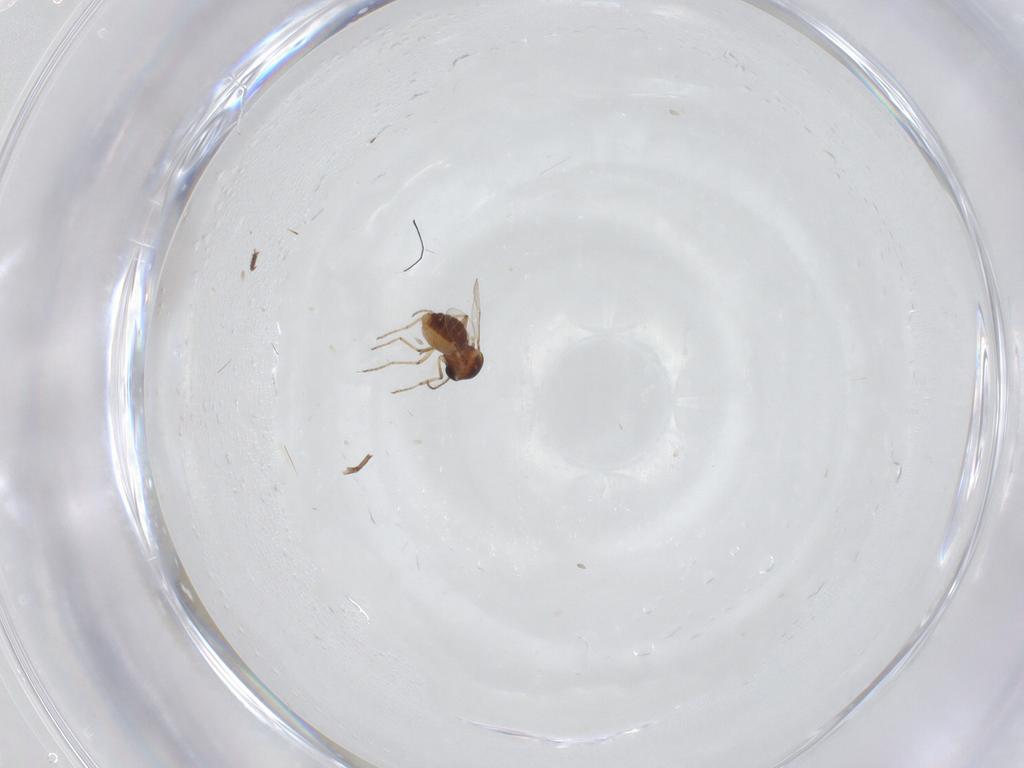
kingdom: Animalia
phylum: Arthropoda
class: Insecta
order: Diptera
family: Ceratopogonidae
